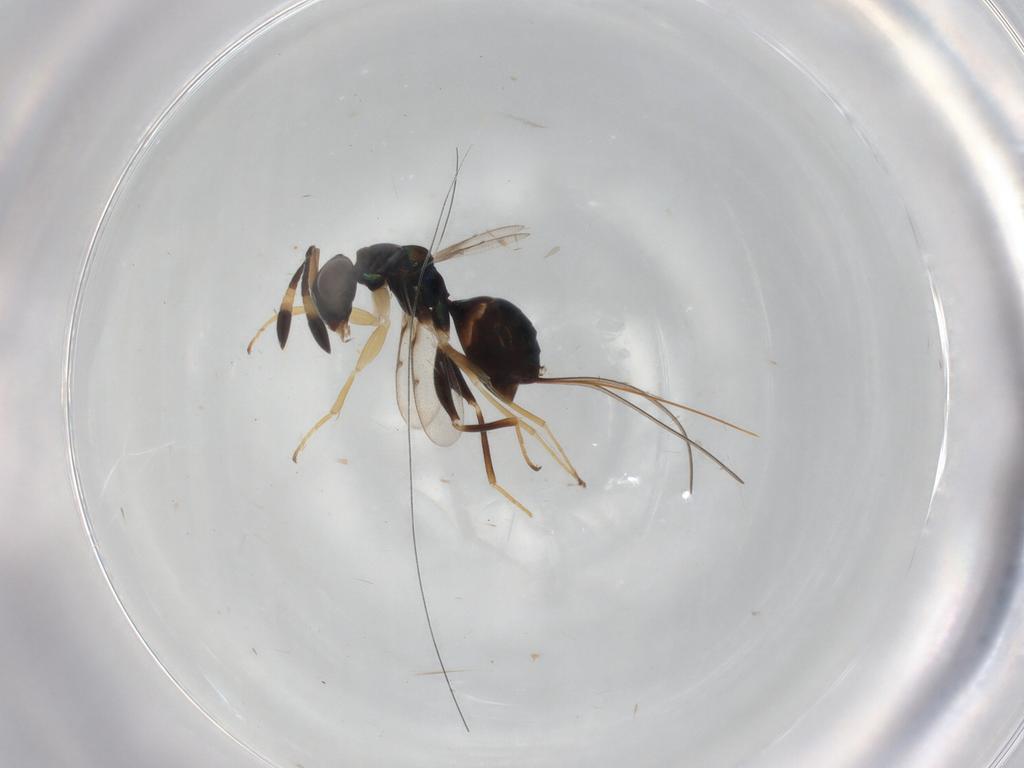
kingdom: Animalia
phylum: Arthropoda
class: Insecta
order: Hymenoptera
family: Torymidae
